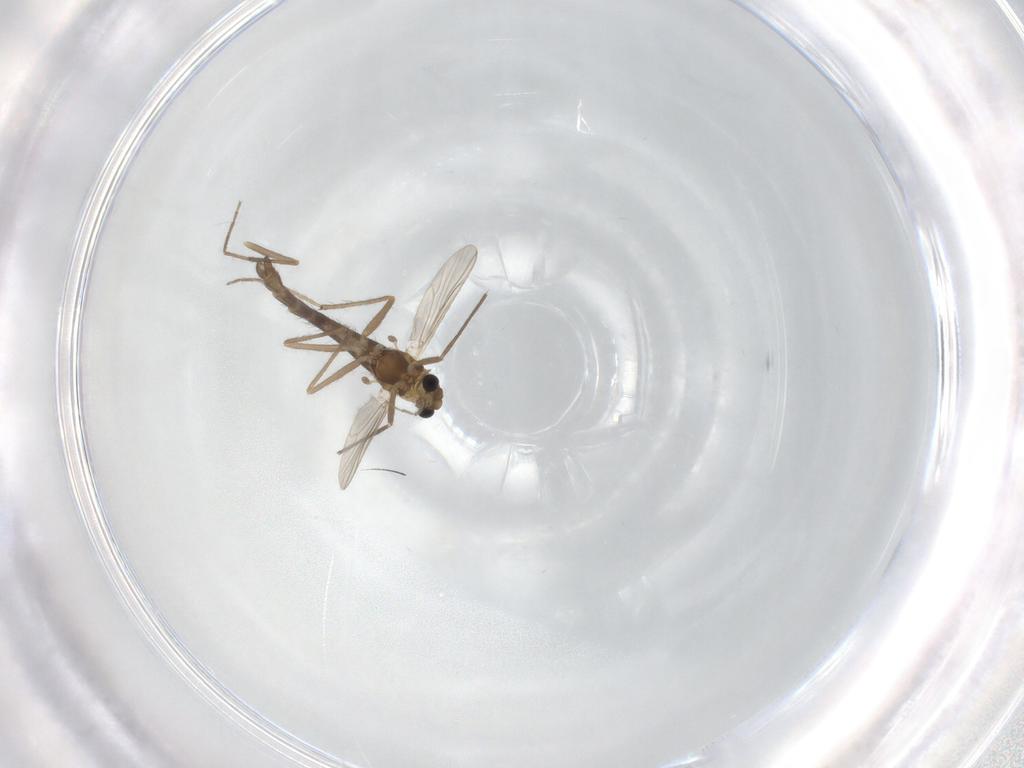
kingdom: Animalia
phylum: Arthropoda
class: Insecta
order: Diptera
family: Chironomidae
